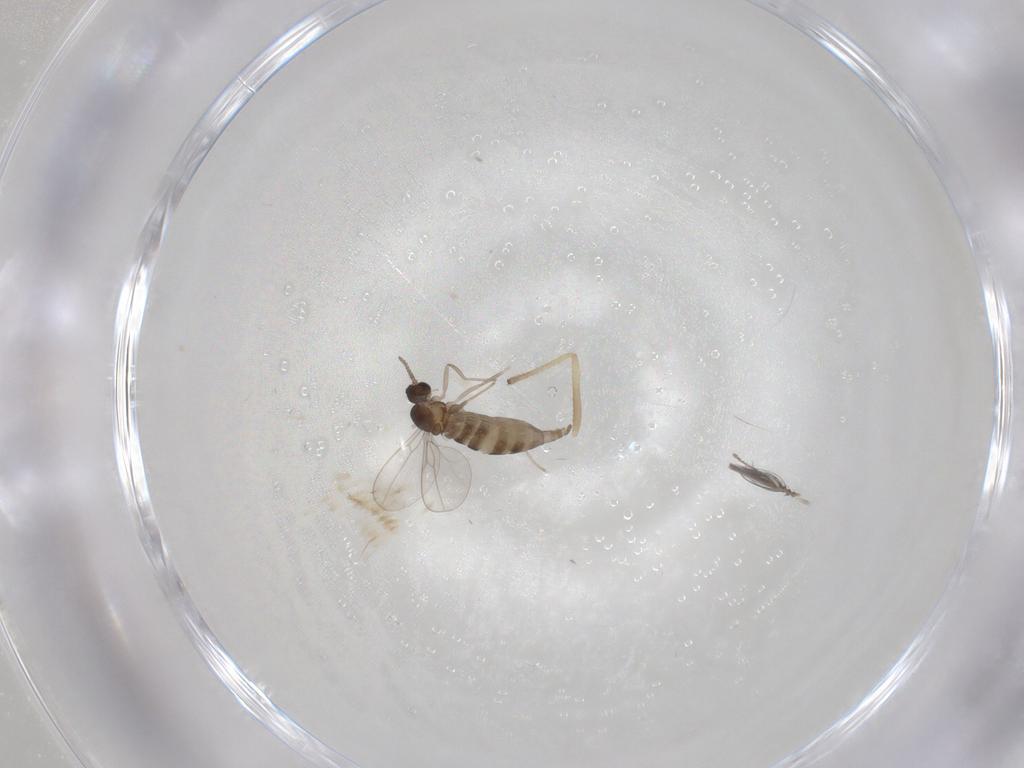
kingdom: Animalia
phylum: Arthropoda
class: Insecta
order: Diptera
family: Cecidomyiidae
